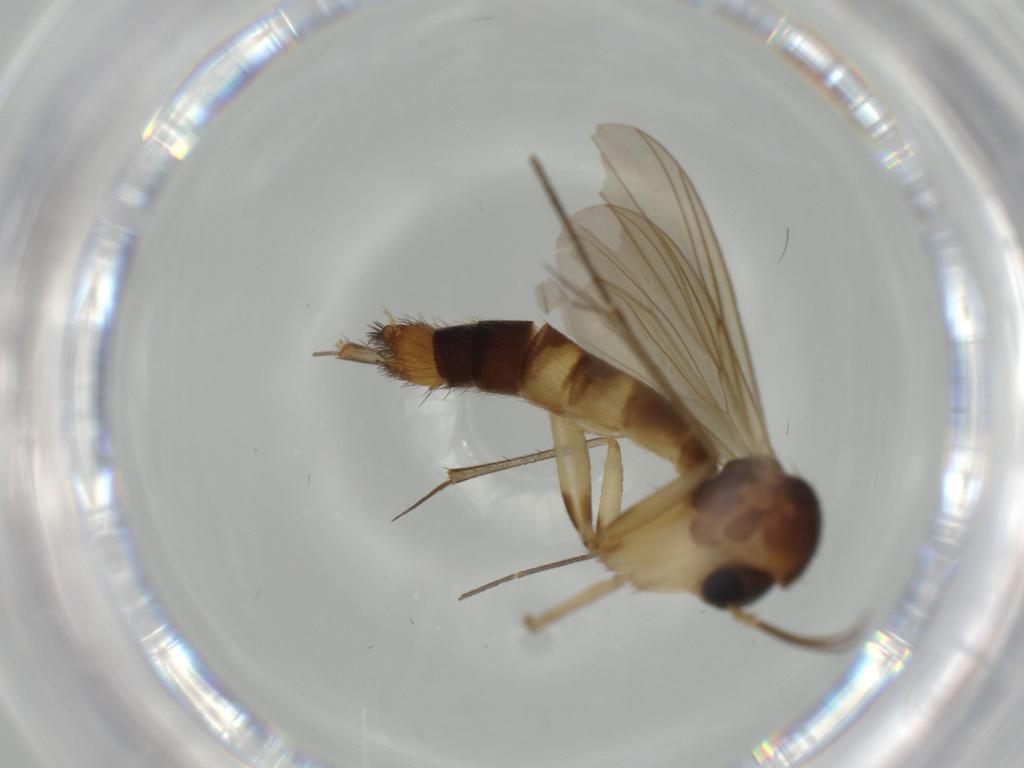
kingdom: Animalia
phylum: Arthropoda
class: Insecta
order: Diptera
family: Mycetophilidae
